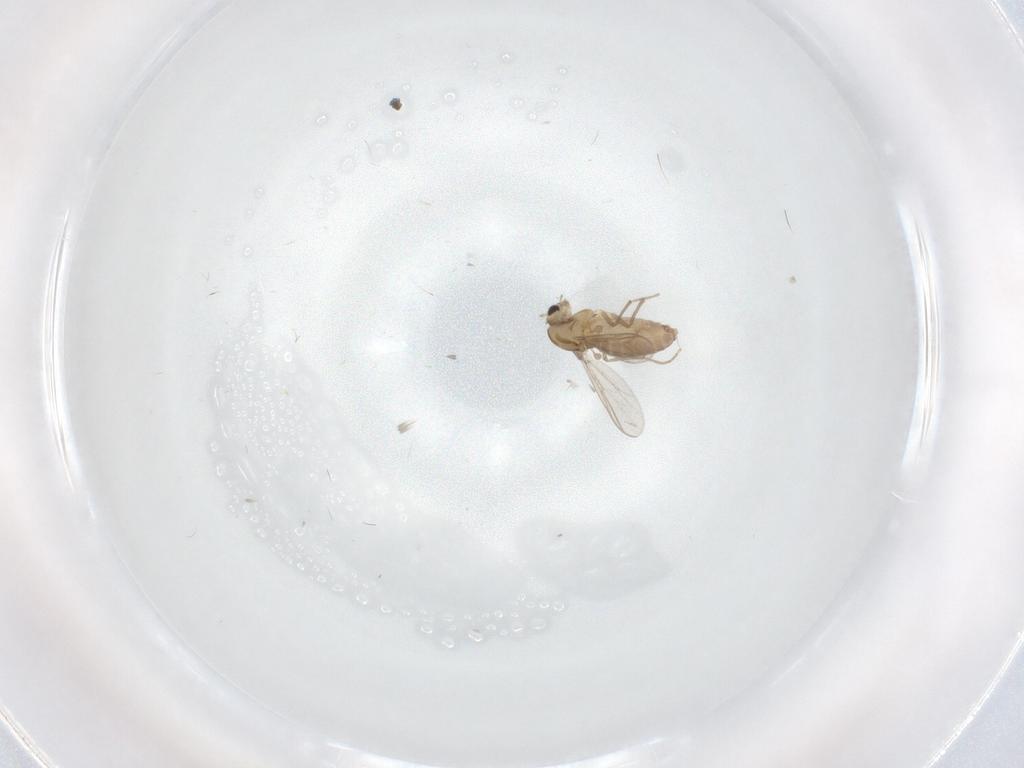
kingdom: Animalia
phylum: Arthropoda
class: Insecta
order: Diptera
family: Chironomidae
